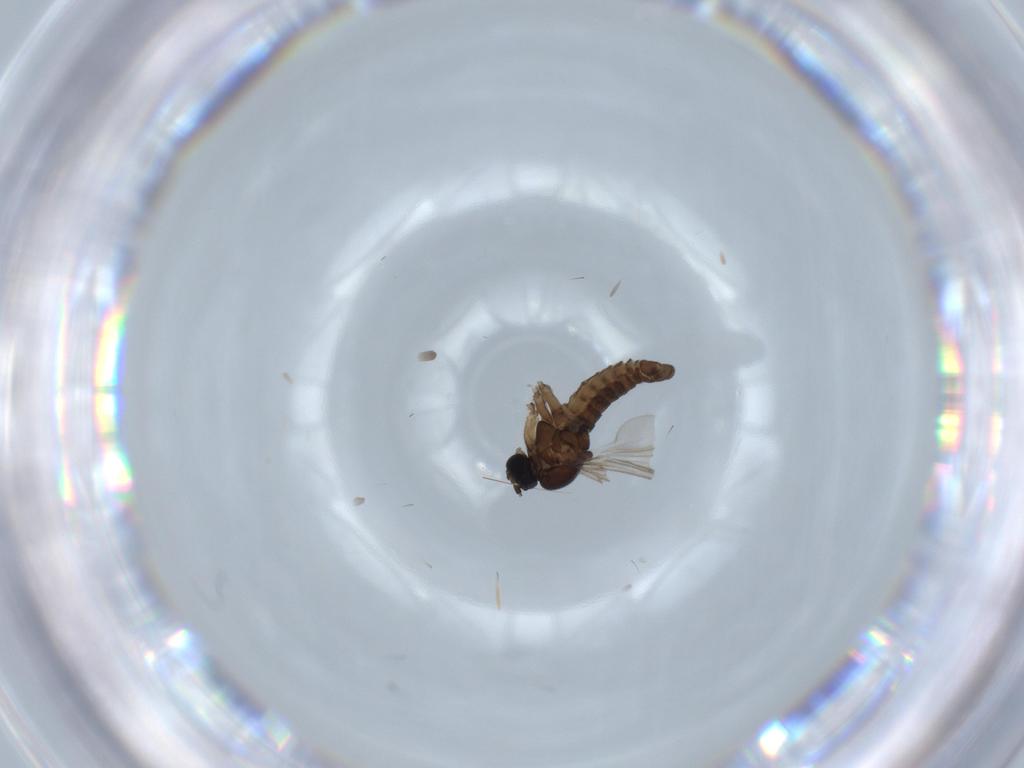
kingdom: Animalia
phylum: Arthropoda
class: Insecta
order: Diptera
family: Sciaridae
